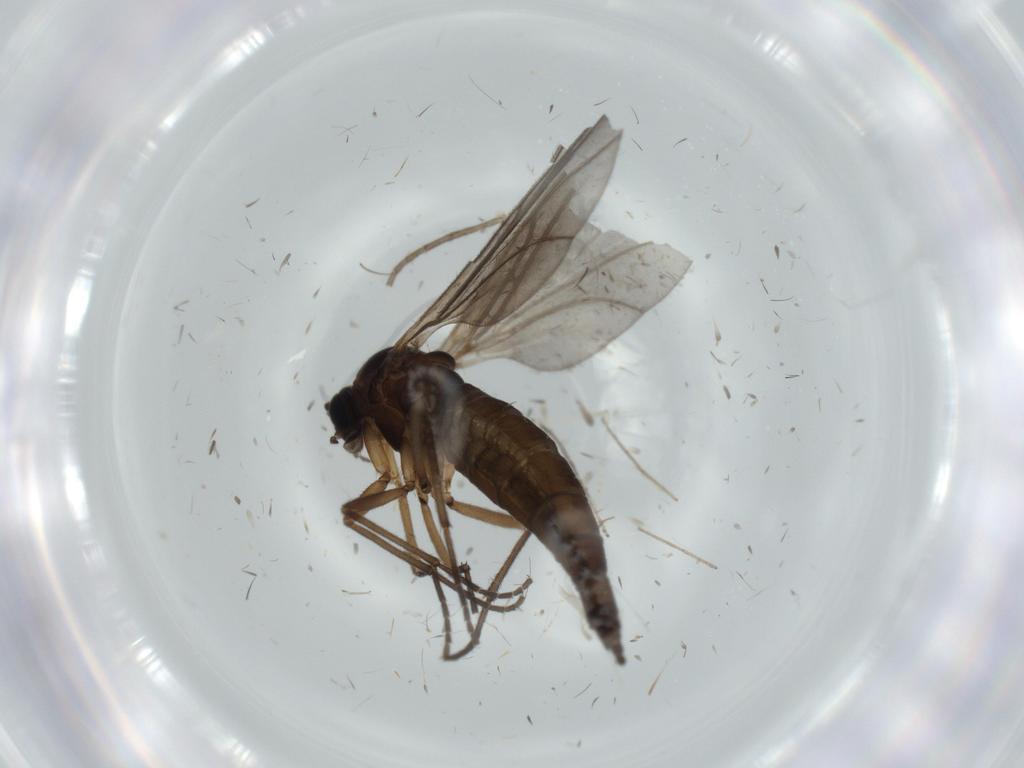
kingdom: Animalia
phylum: Arthropoda
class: Insecta
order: Diptera
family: Sciaridae
